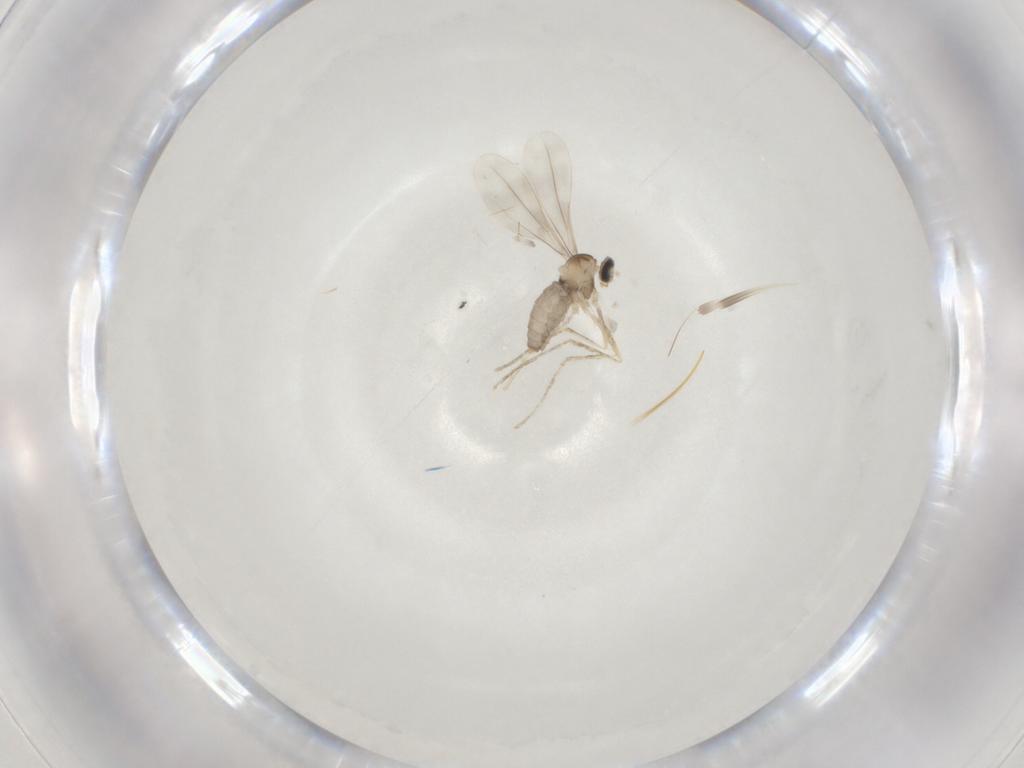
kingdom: Animalia
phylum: Arthropoda
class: Insecta
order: Diptera
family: Cecidomyiidae
